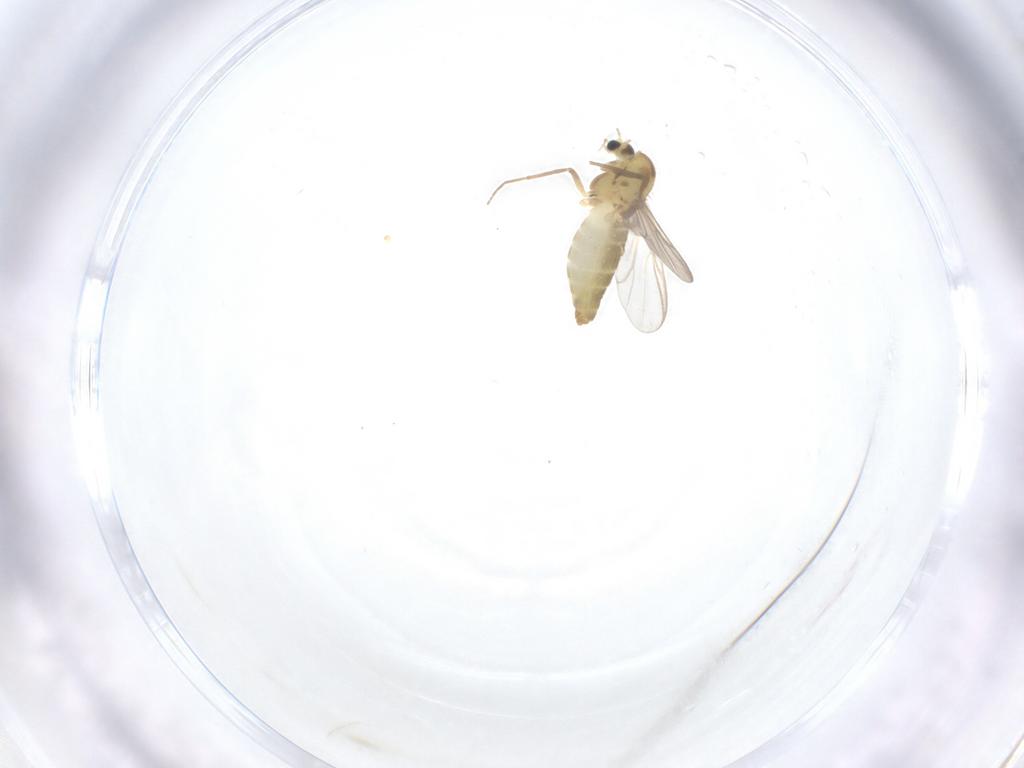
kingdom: Animalia
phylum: Arthropoda
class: Insecta
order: Diptera
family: Chironomidae
